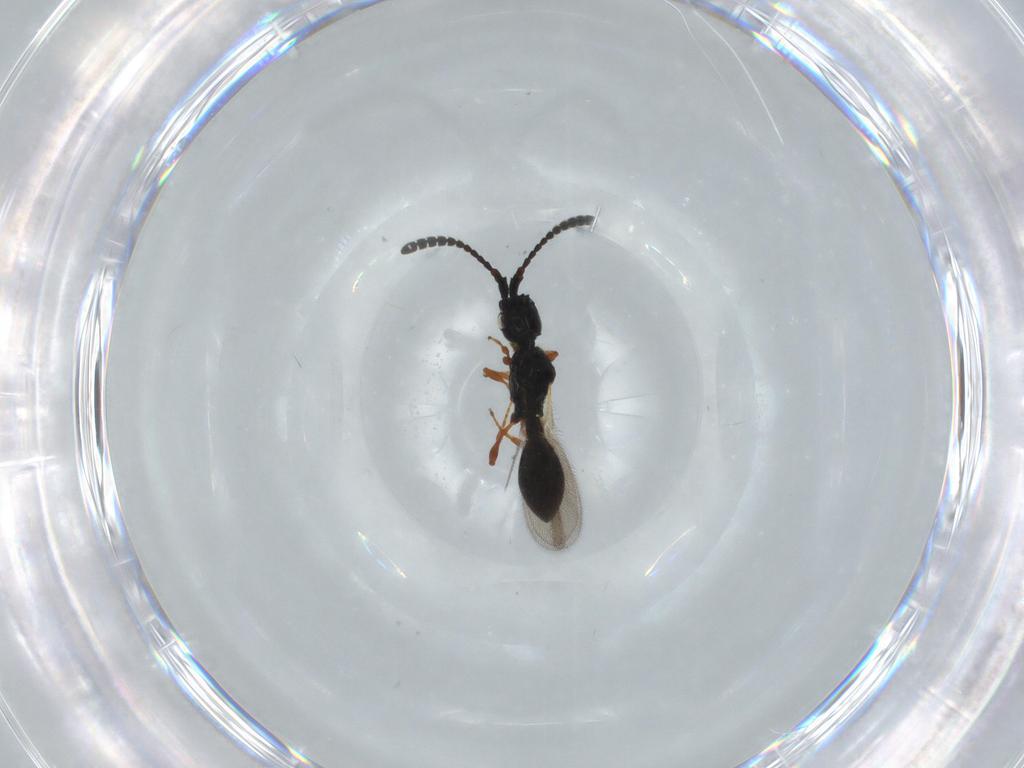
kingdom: Animalia
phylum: Arthropoda
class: Insecta
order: Hymenoptera
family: Diapriidae
